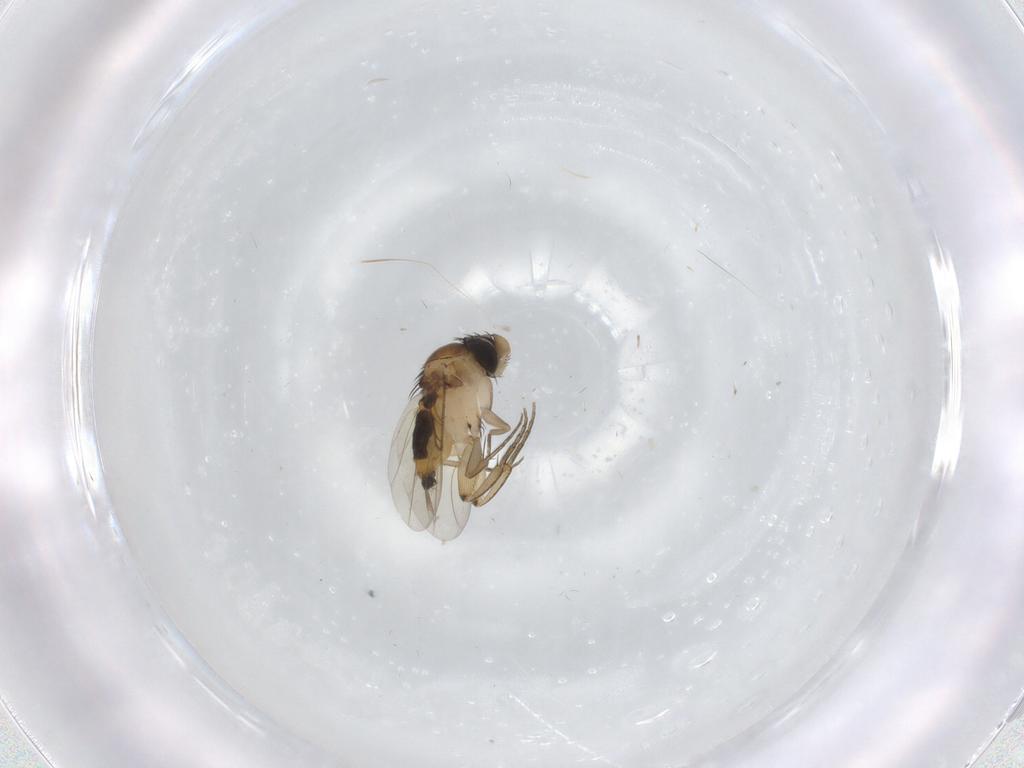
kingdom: Animalia
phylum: Arthropoda
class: Insecta
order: Diptera
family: Phoridae
